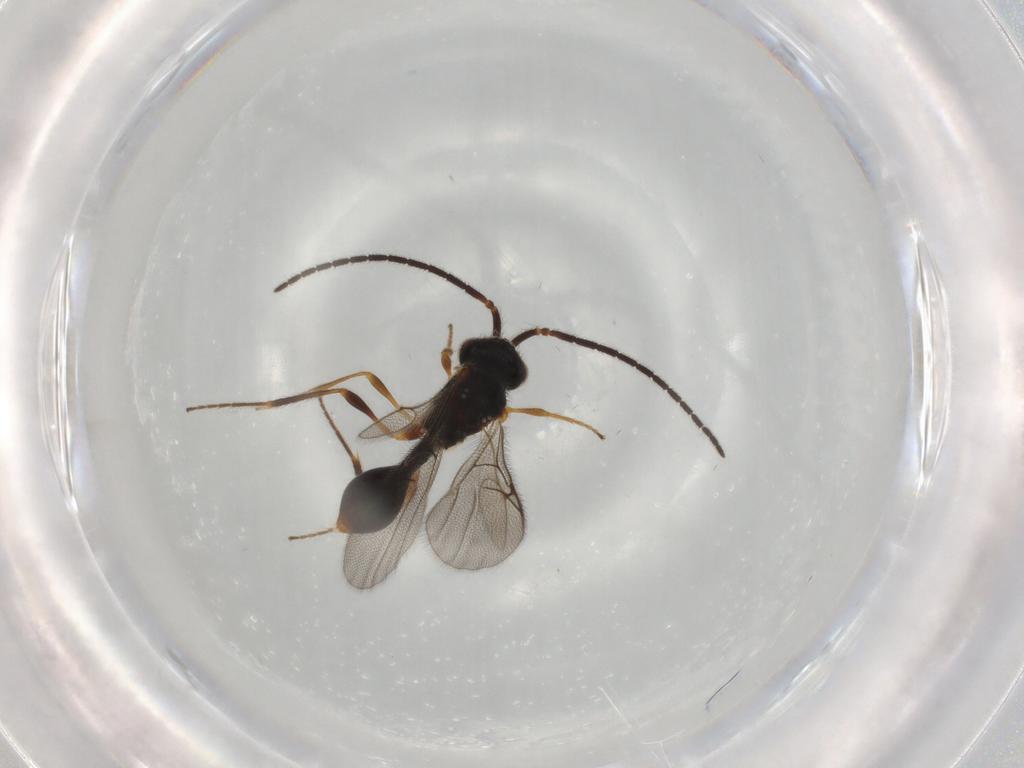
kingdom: Animalia
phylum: Arthropoda
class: Insecta
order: Hymenoptera
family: Diapriidae
